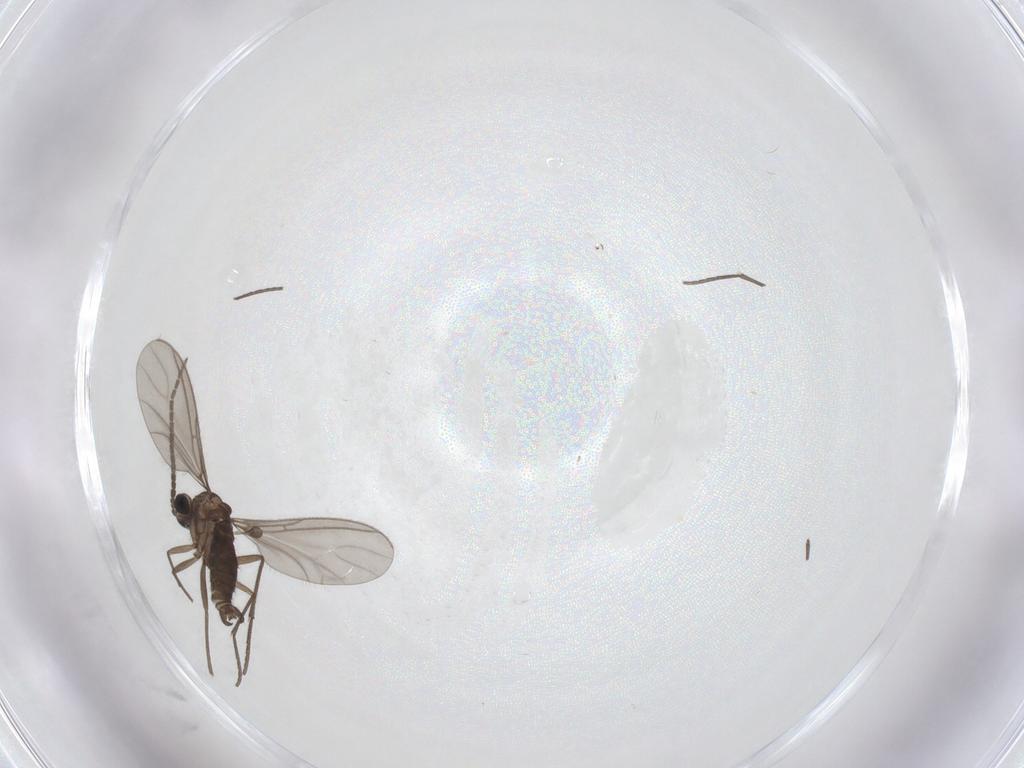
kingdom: Animalia
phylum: Arthropoda
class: Insecta
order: Diptera
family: Sciaridae
